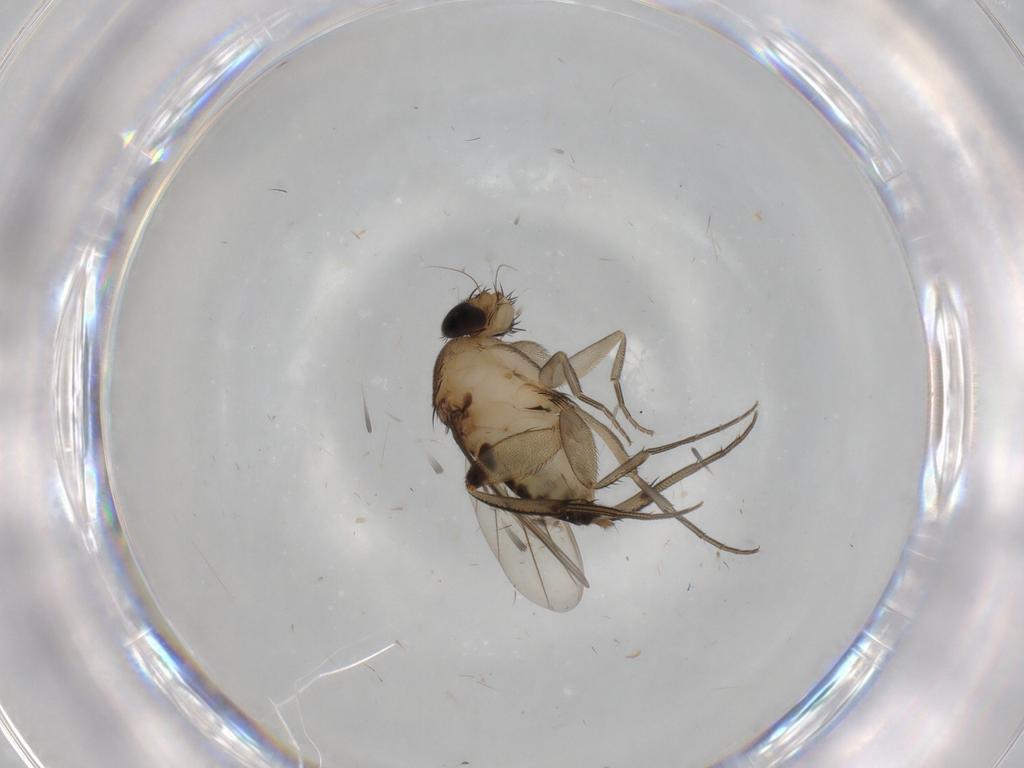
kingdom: Animalia
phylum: Arthropoda
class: Insecta
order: Diptera
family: Phoridae
